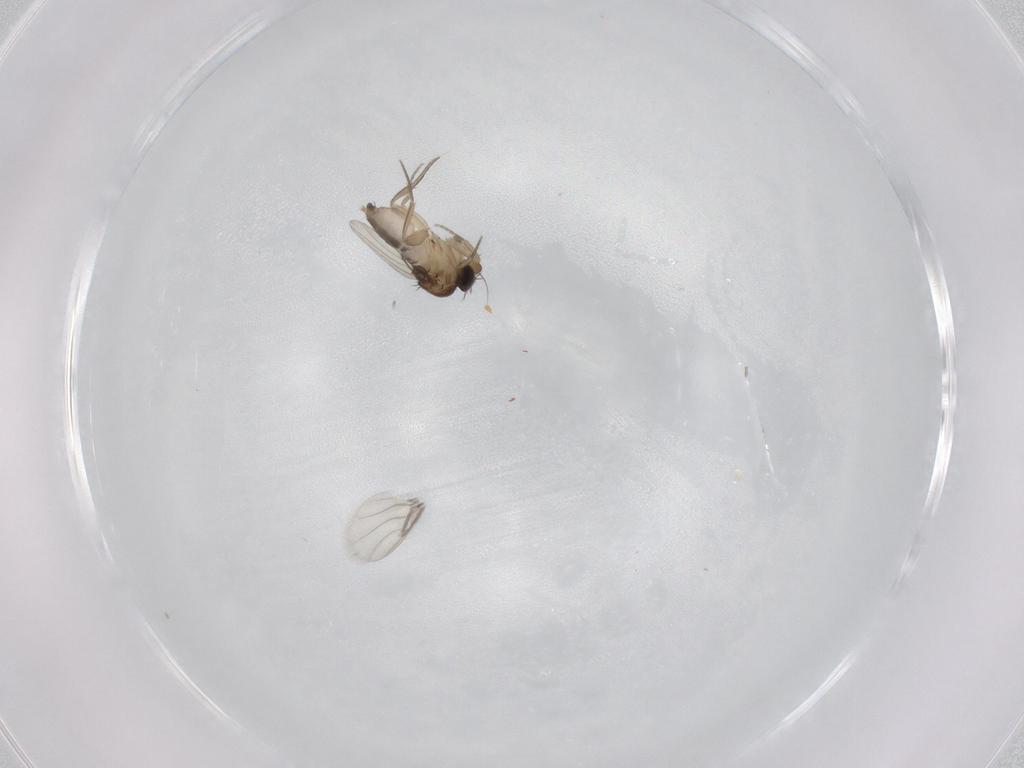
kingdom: Animalia
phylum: Arthropoda
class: Insecta
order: Diptera
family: Phoridae
